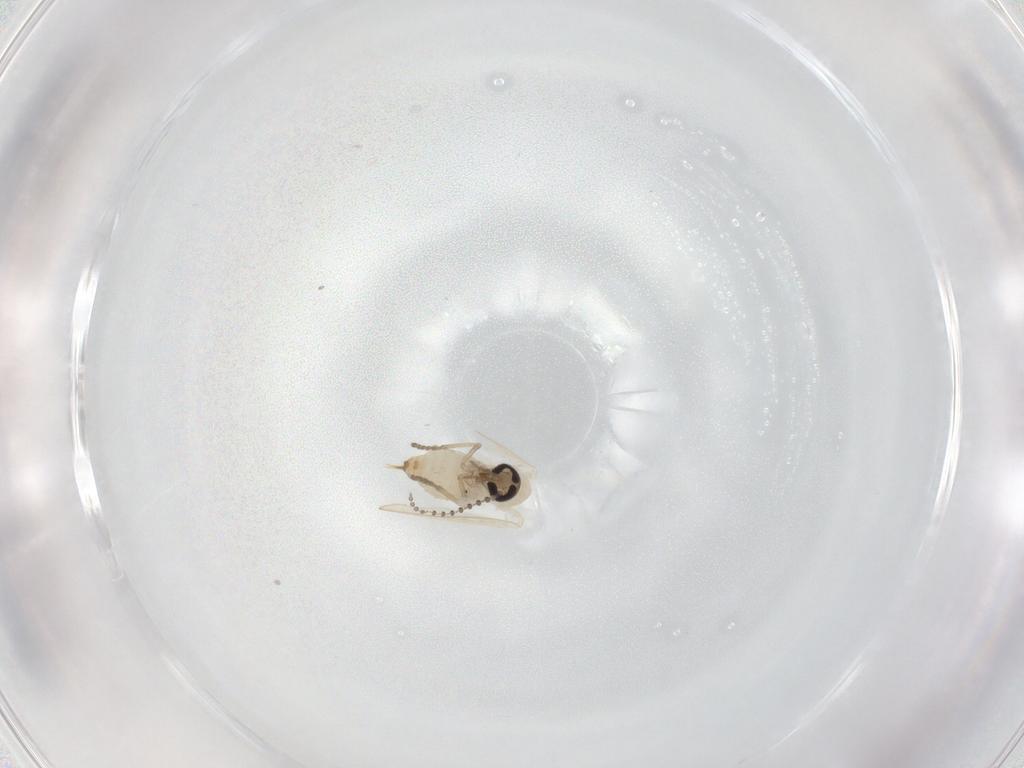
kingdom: Animalia
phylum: Arthropoda
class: Insecta
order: Diptera
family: Psychodidae
